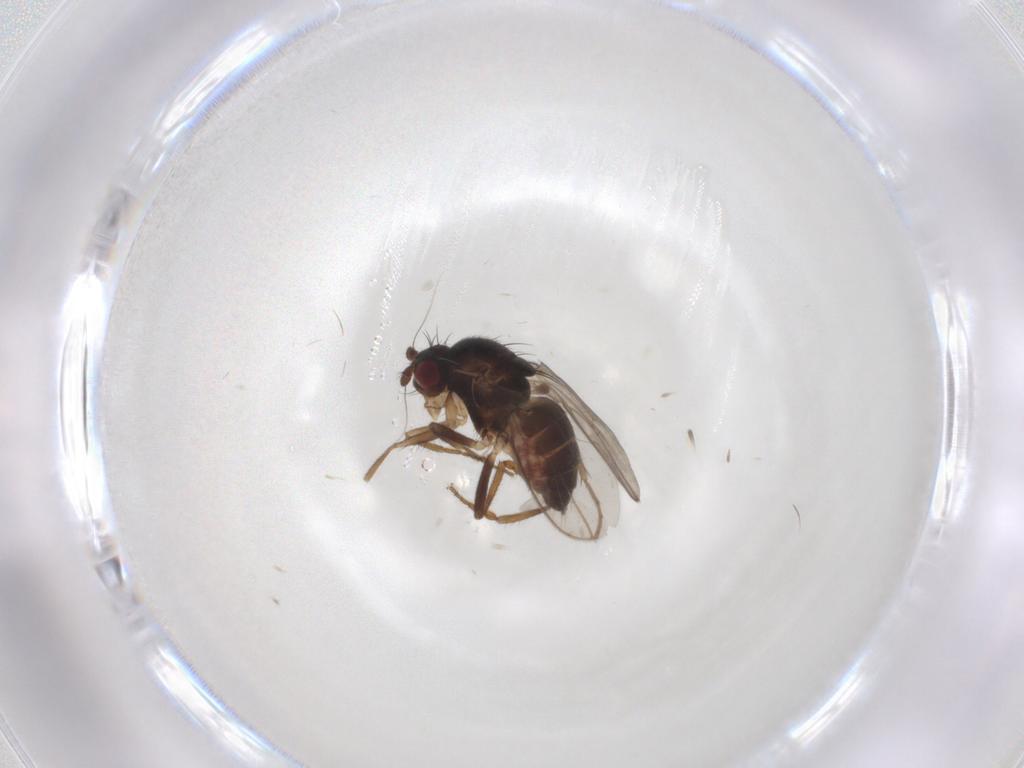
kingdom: Animalia
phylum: Arthropoda
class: Insecta
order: Diptera
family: Sphaeroceridae
